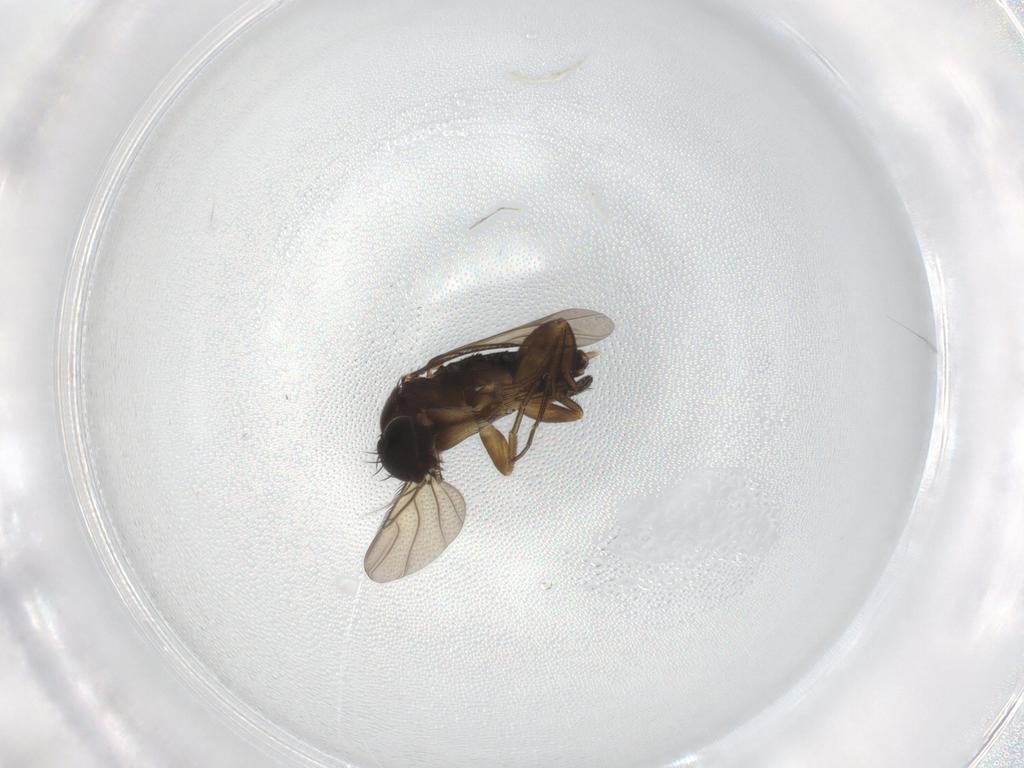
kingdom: Animalia
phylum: Arthropoda
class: Insecta
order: Diptera
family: Phoridae
